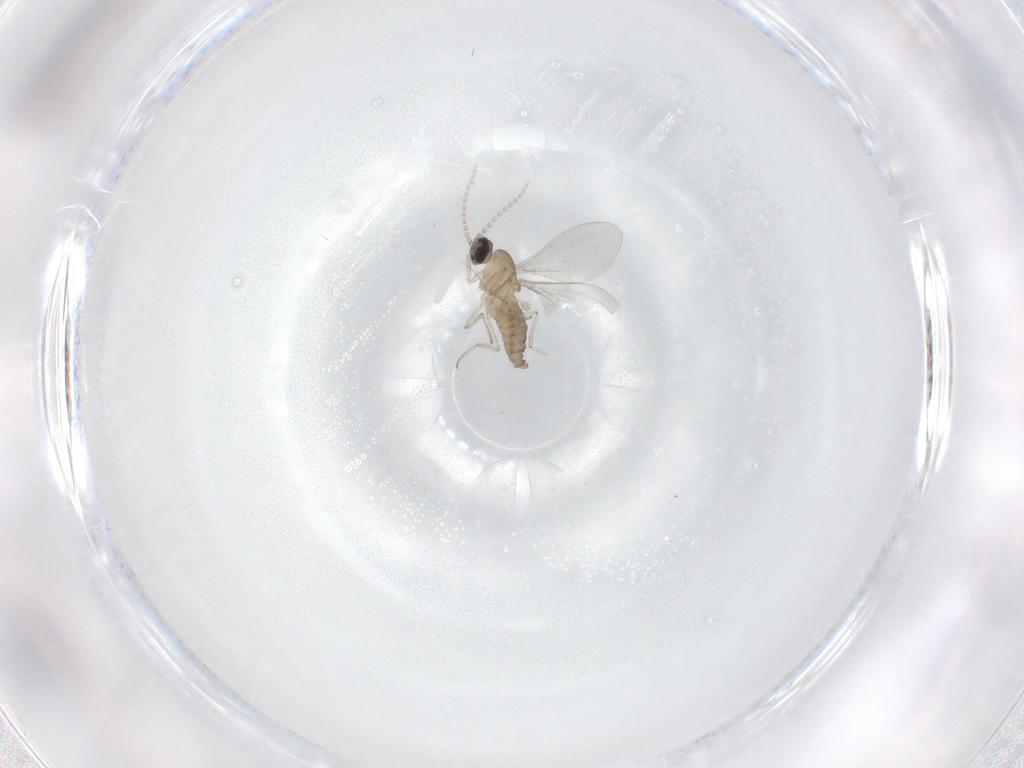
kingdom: Animalia
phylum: Arthropoda
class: Insecta
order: Diptera
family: Cecidomyiidae
